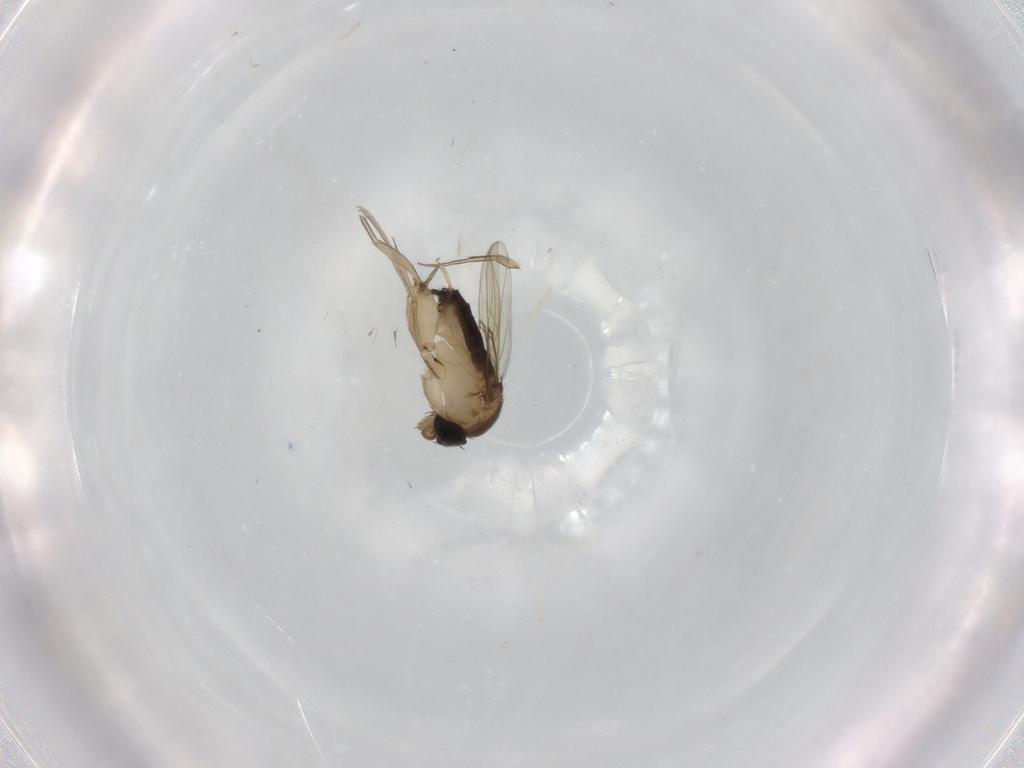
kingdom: Animalia
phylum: Arthropoda
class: Insecta
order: Diptera
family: Phoridae
